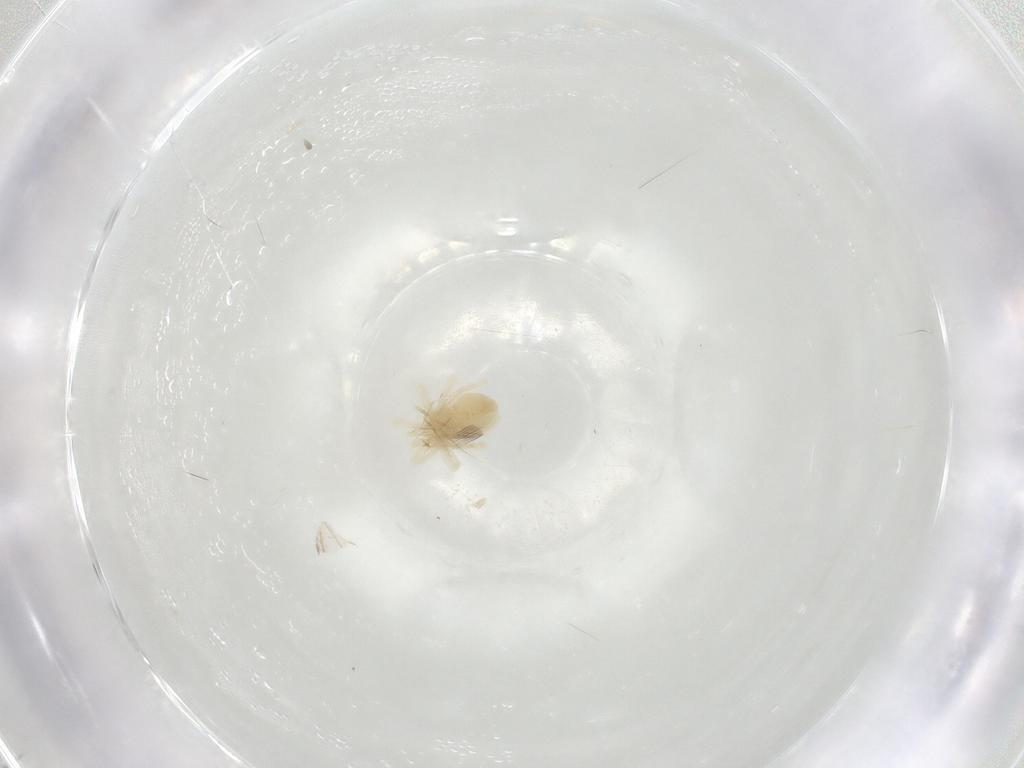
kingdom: Animalia
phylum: Arthropoda
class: Arachnida
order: Trombidiformes
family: Anystidae
